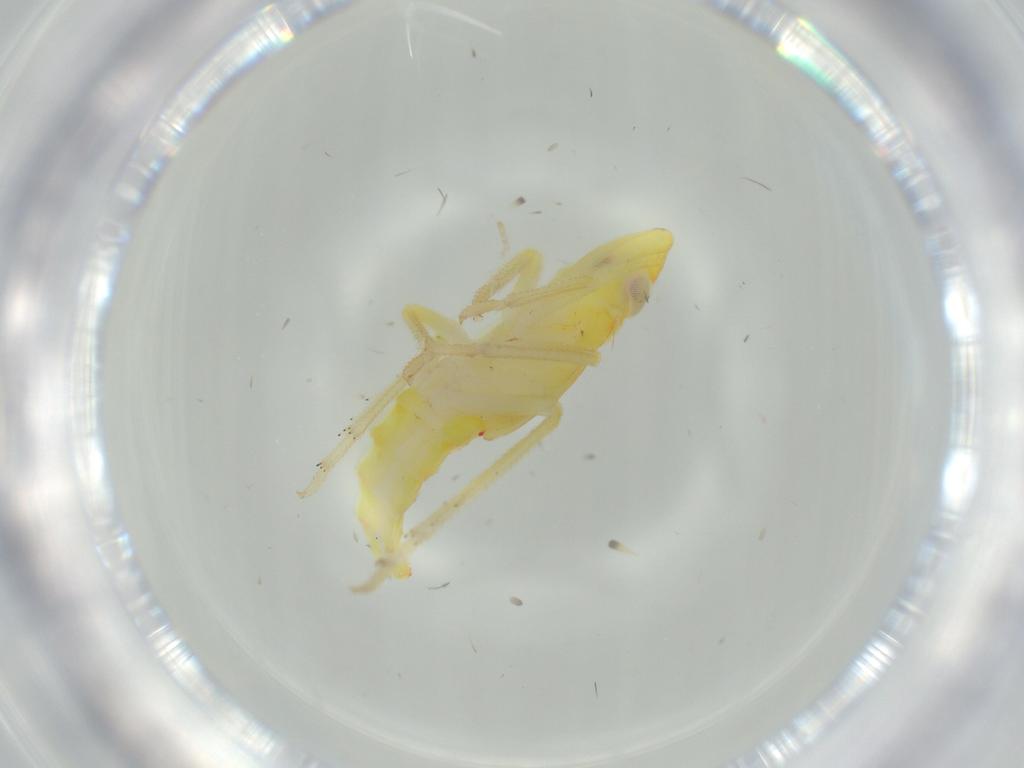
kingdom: Animalia
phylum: Arthropoda
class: Insecta
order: Hemiptera
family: Tropiduchidae
